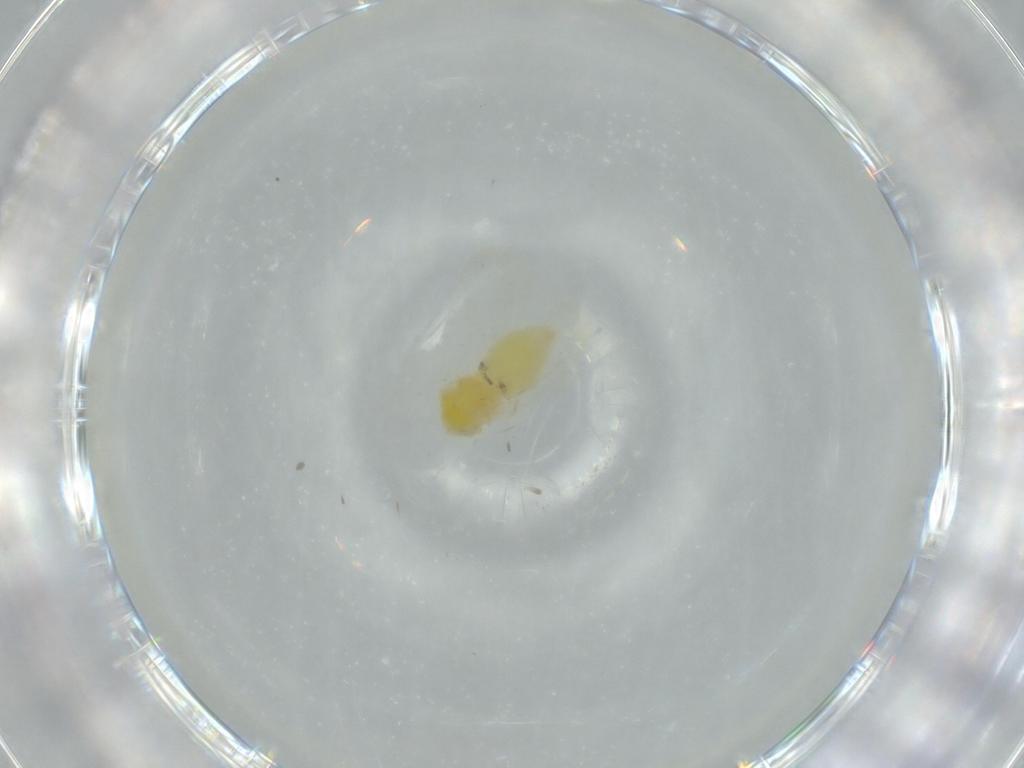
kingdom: Animalia
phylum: Arthropoda
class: Insecta
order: Hemiptera
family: Aleyrodidae
